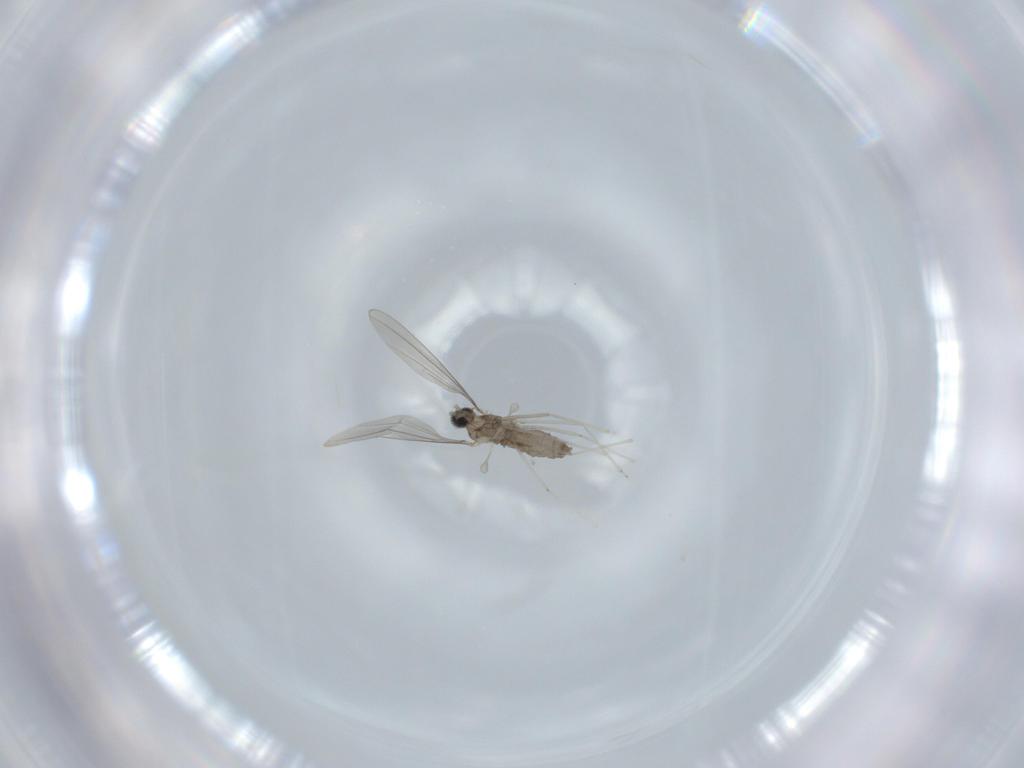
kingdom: Animalia
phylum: Arthropoda
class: Insecta
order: Diptera
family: Cecidomyiidae
